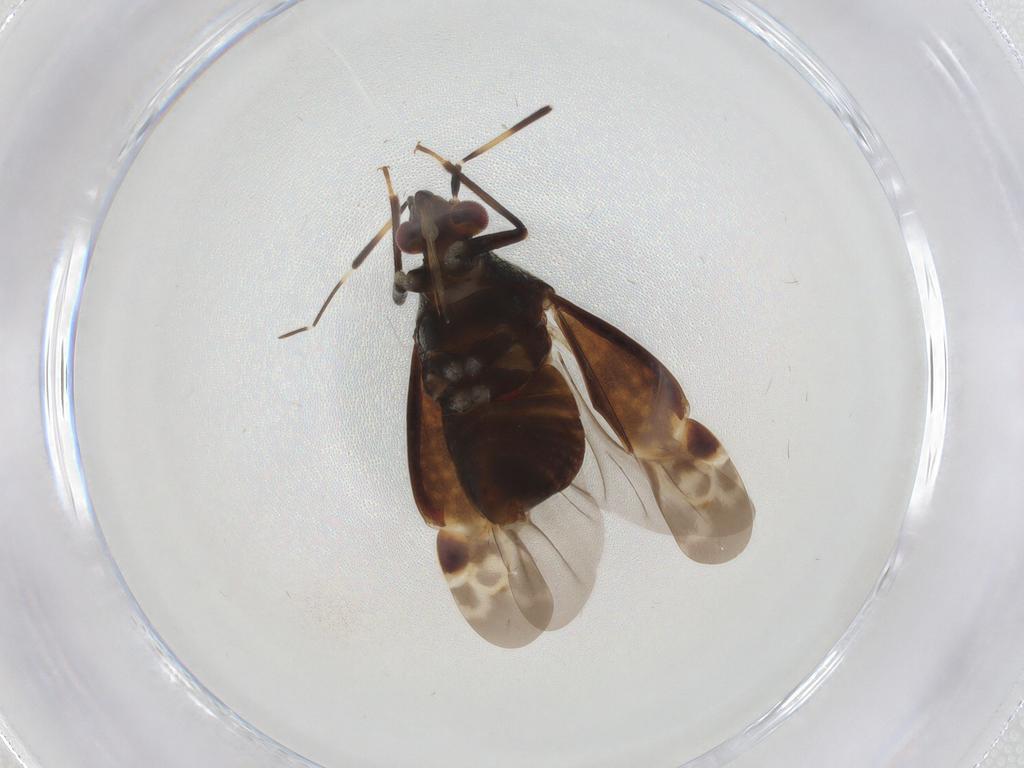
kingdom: Animalia
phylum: Arthropoda
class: Insecta
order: Hemiptera
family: Miridae
